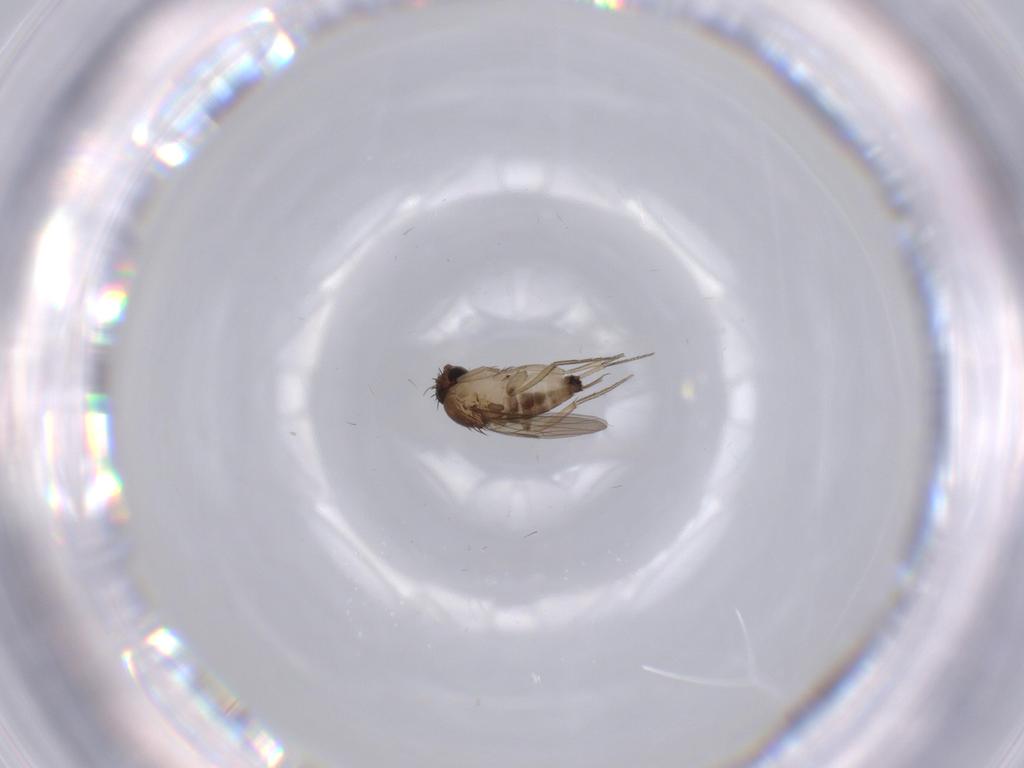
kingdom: Animalia
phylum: Arthropoda
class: Insecta
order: Diptera
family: Phoridae
